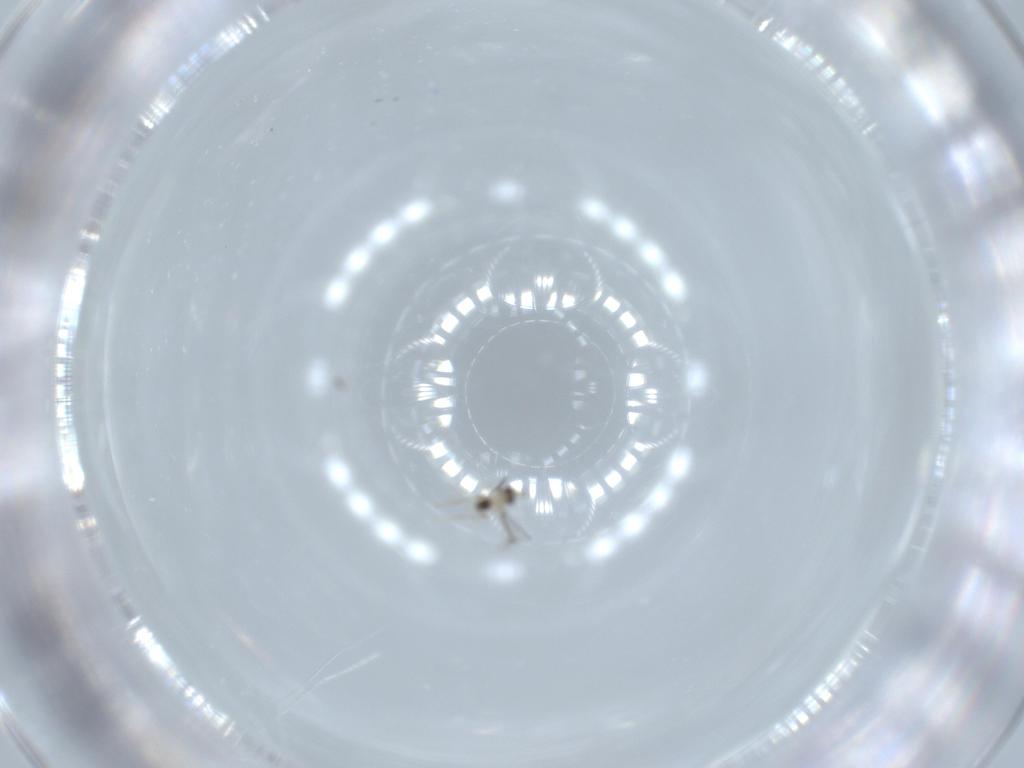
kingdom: Animalia
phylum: Arthropoda
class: Insecta
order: Hymenoptera
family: Mymaridae
